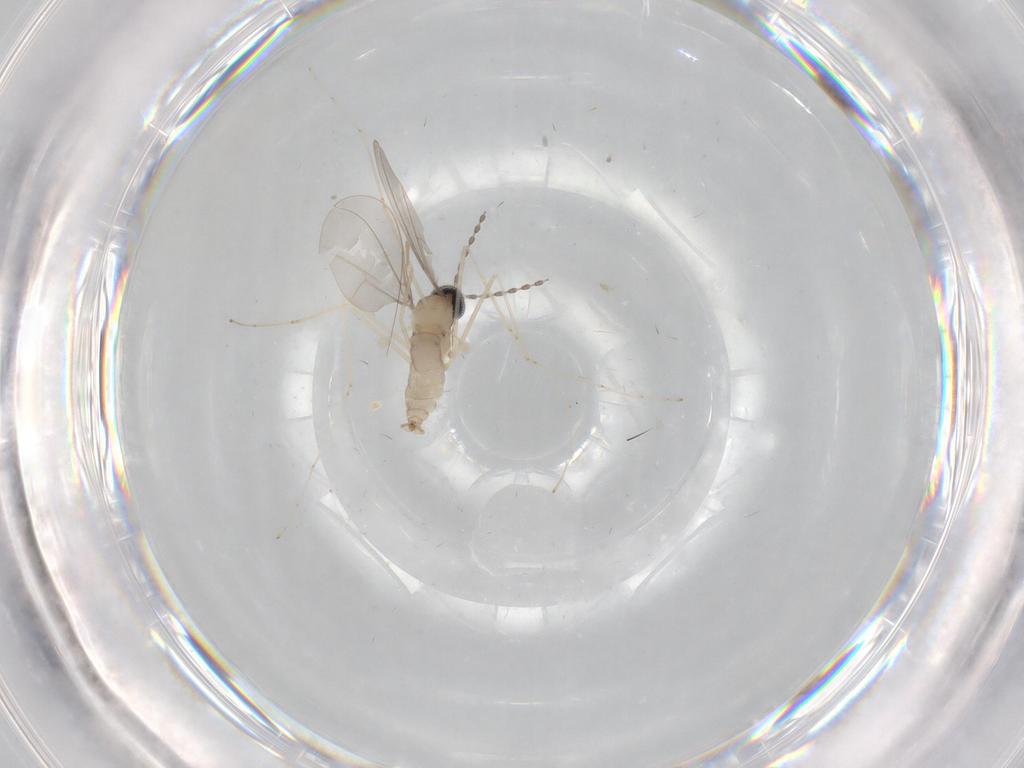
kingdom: Animalia
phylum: Arthropoda
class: Insecta
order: Diptera
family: Cecidomyiidae
